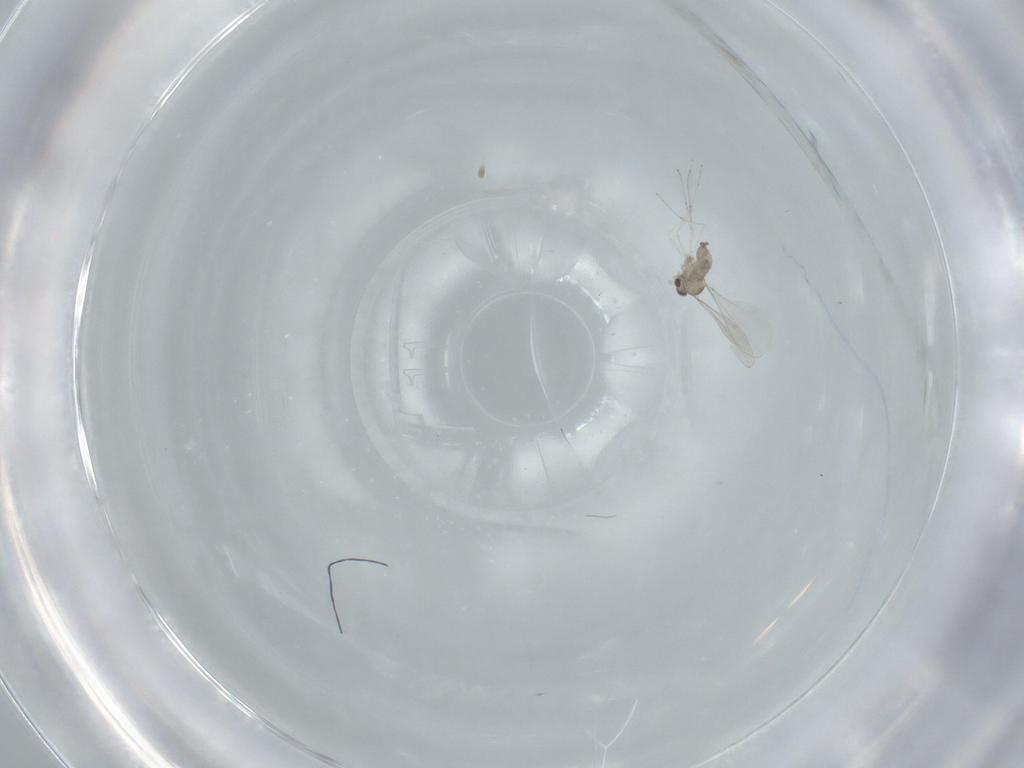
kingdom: Animalia
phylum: Arthropoda
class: Insecta
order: Diptera
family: Cecidomyiidae
